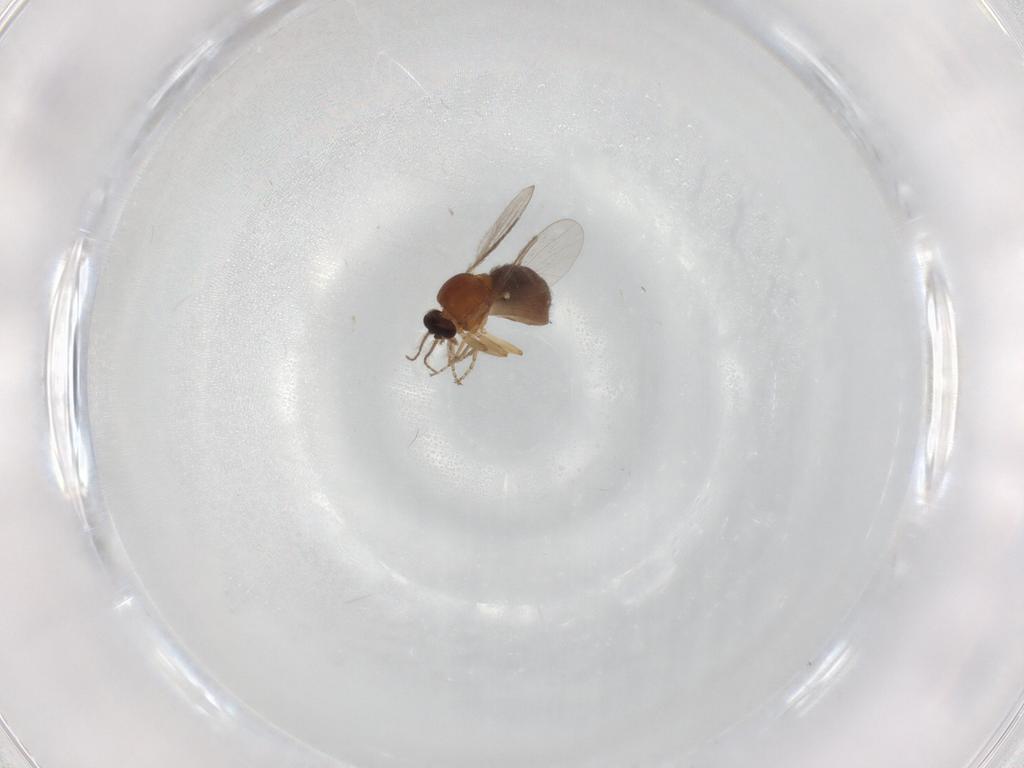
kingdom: Animalia
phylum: Arthropoda
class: Insecta
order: Diptera
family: Ceratopogonidae
